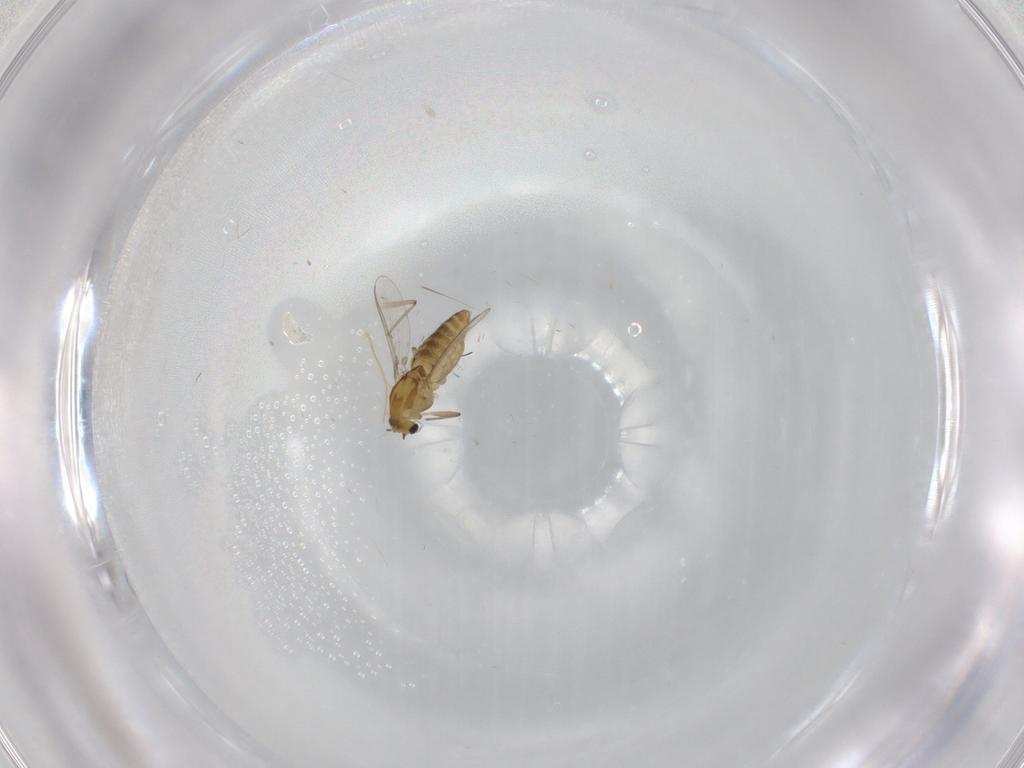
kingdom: Animalia
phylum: Arthropoda
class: Insecta
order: Diptera
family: Chironomidae
